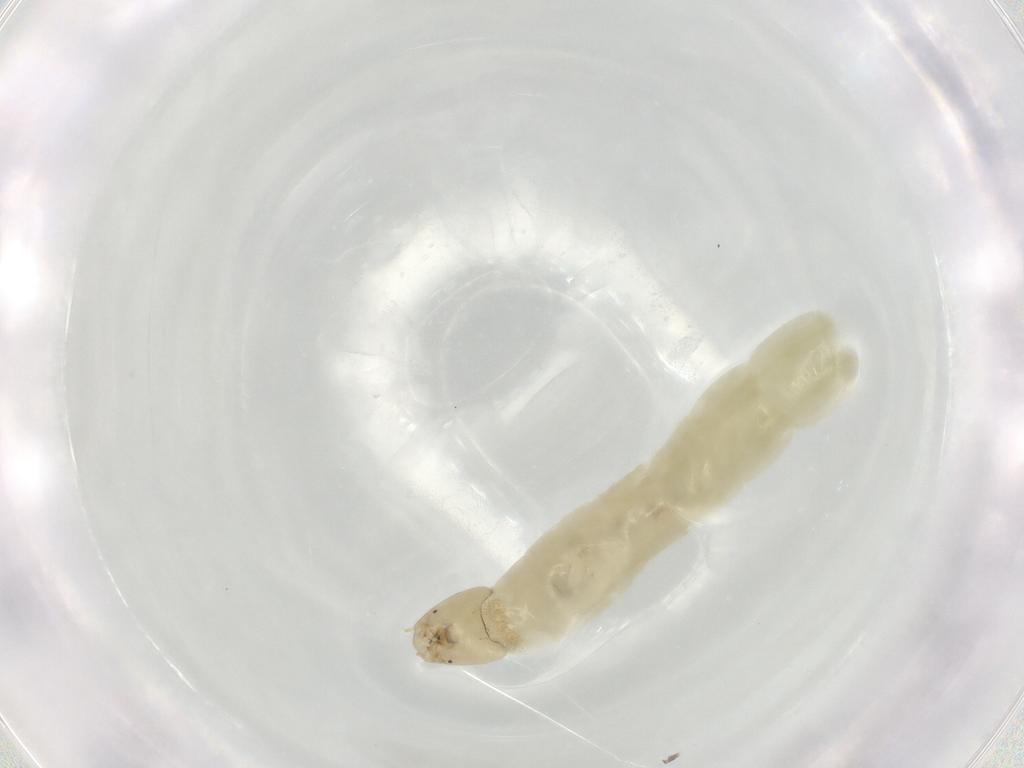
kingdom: Animalia
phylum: Arthropoda
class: Insecta
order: Diptera
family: Chironomidae
